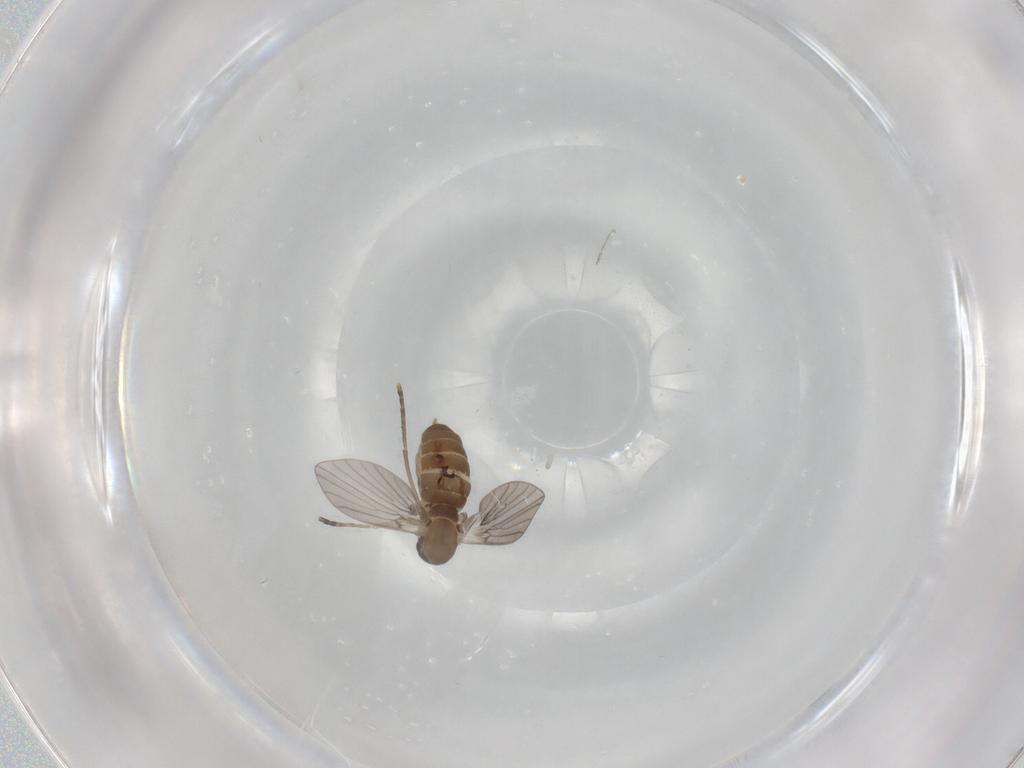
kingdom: Animalia
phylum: Arthropoda
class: Insecta
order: Diptera
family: Cecidomyiidae
